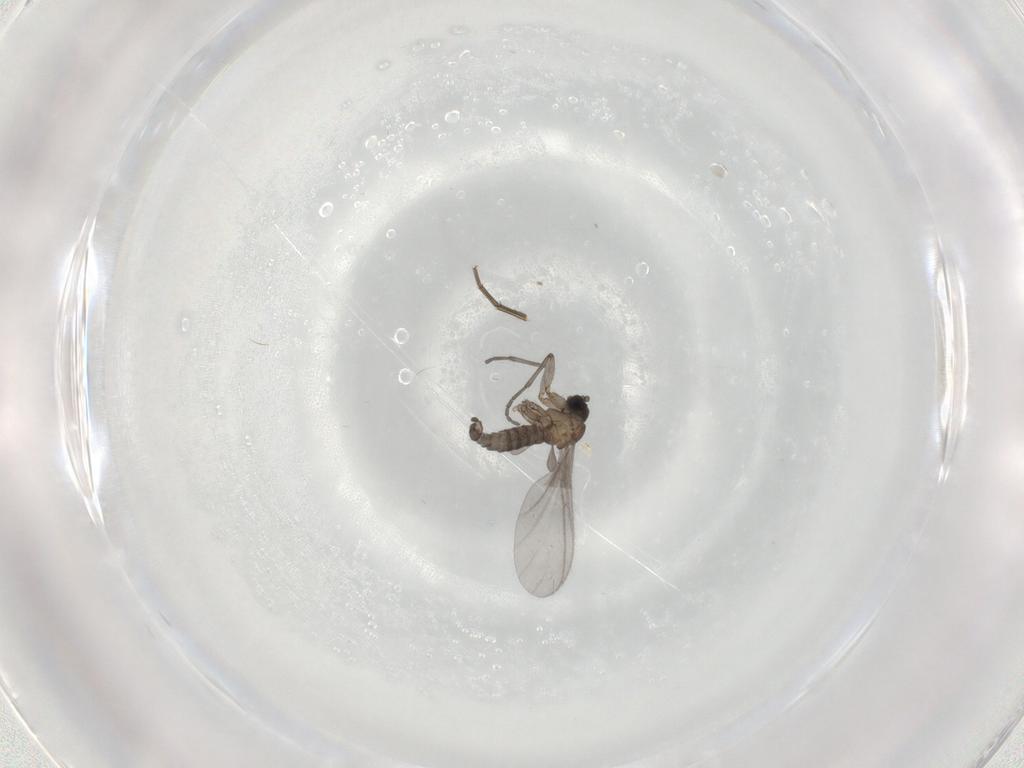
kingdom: Animalia
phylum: Arthropoda
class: Insecta
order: Diptera
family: Sciaridae
